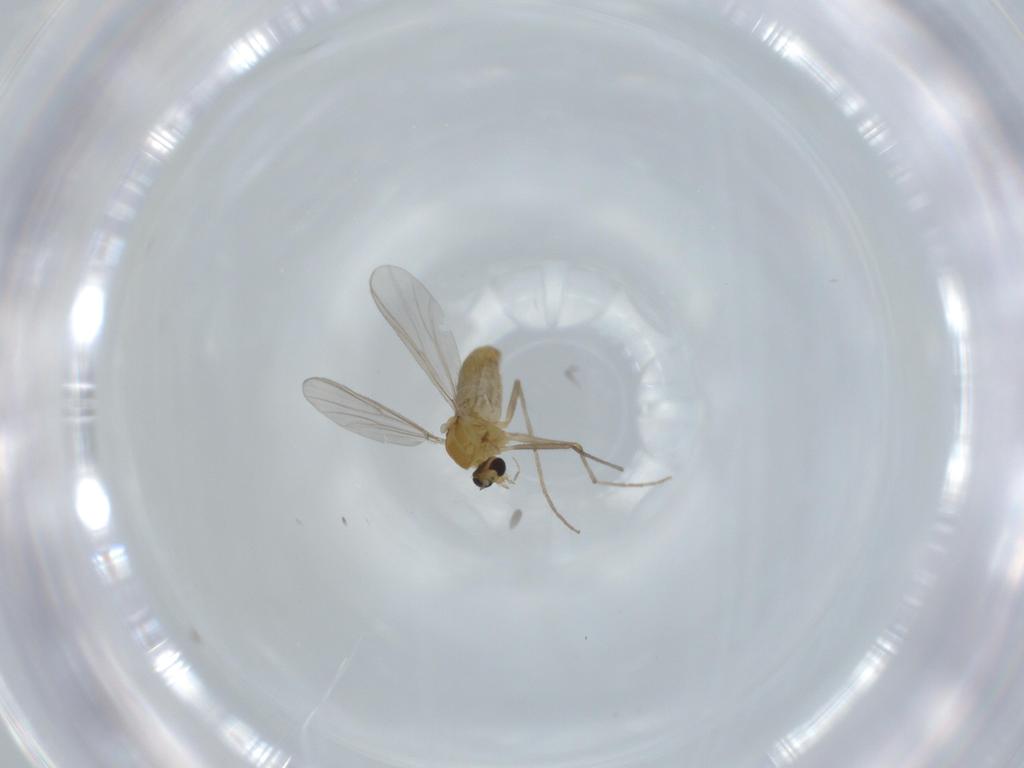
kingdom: Animalia
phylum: Arthropoda
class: Insecta
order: Diptera
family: Chironomidae
